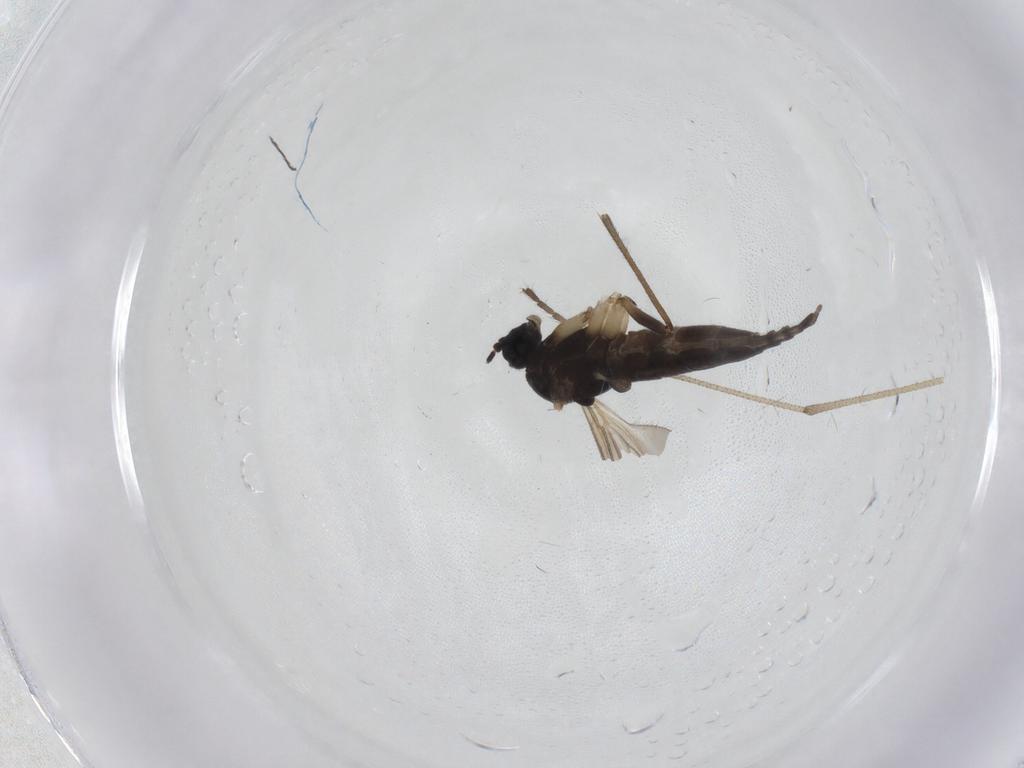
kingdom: Animalia
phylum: Arthropoda
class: Insecta
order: Diptera
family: Sciaridae
